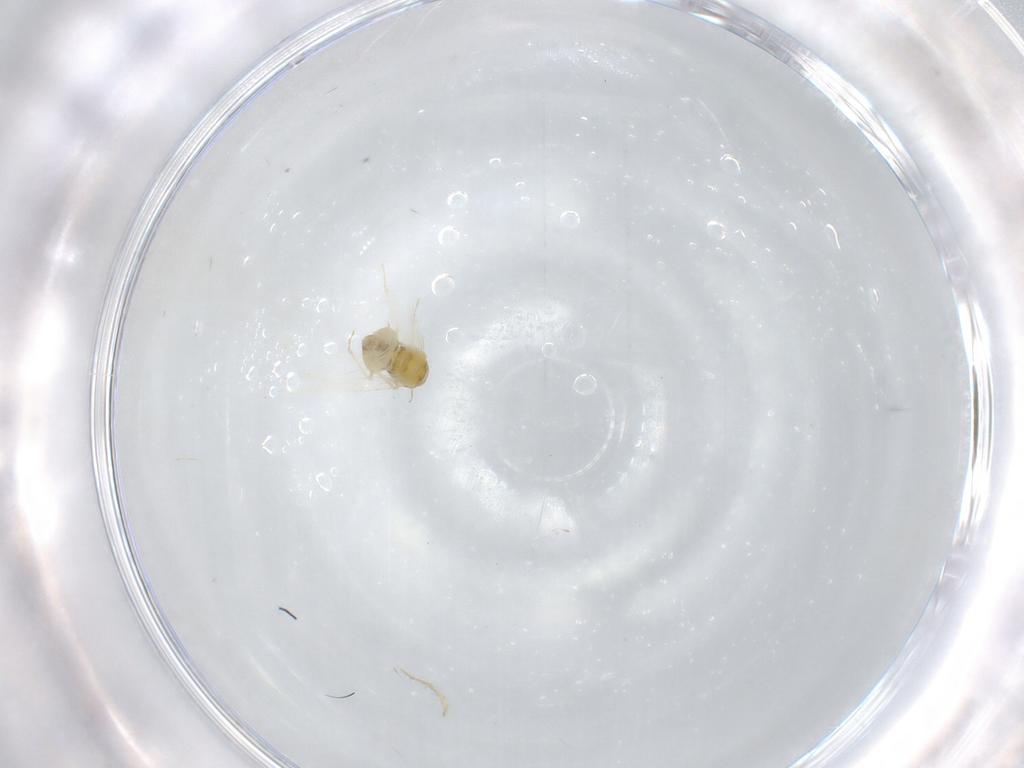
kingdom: Animalia
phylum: Arthropoda
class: Insecta
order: Hemiptera
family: Aleyrodidae
